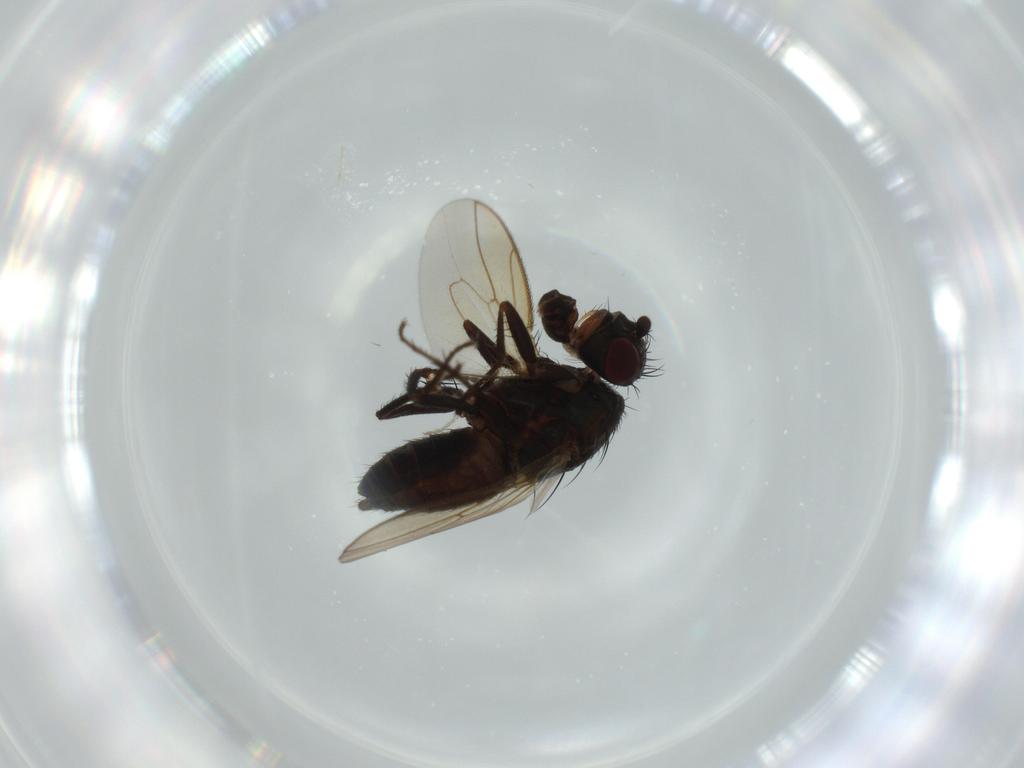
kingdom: Animalia
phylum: Arthropoda
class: Insecta
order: Diptera
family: Sphaeroceridae
